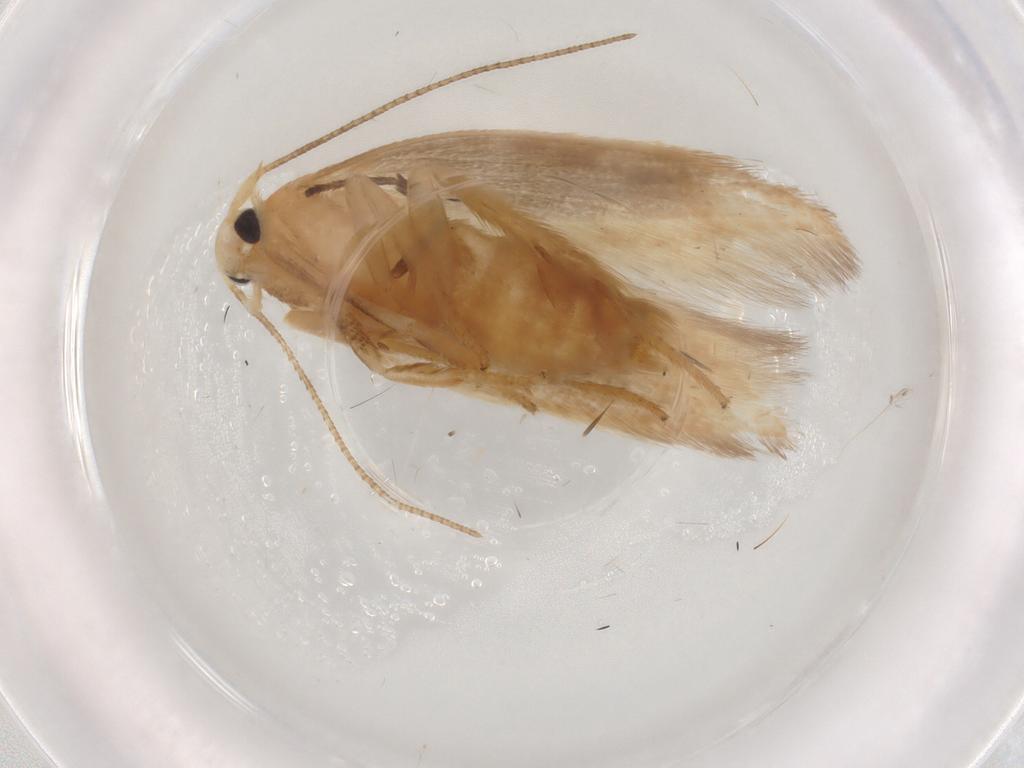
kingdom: Animalia
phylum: Arthropoda
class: Insecta
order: Lepidoptera
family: Geometridae
